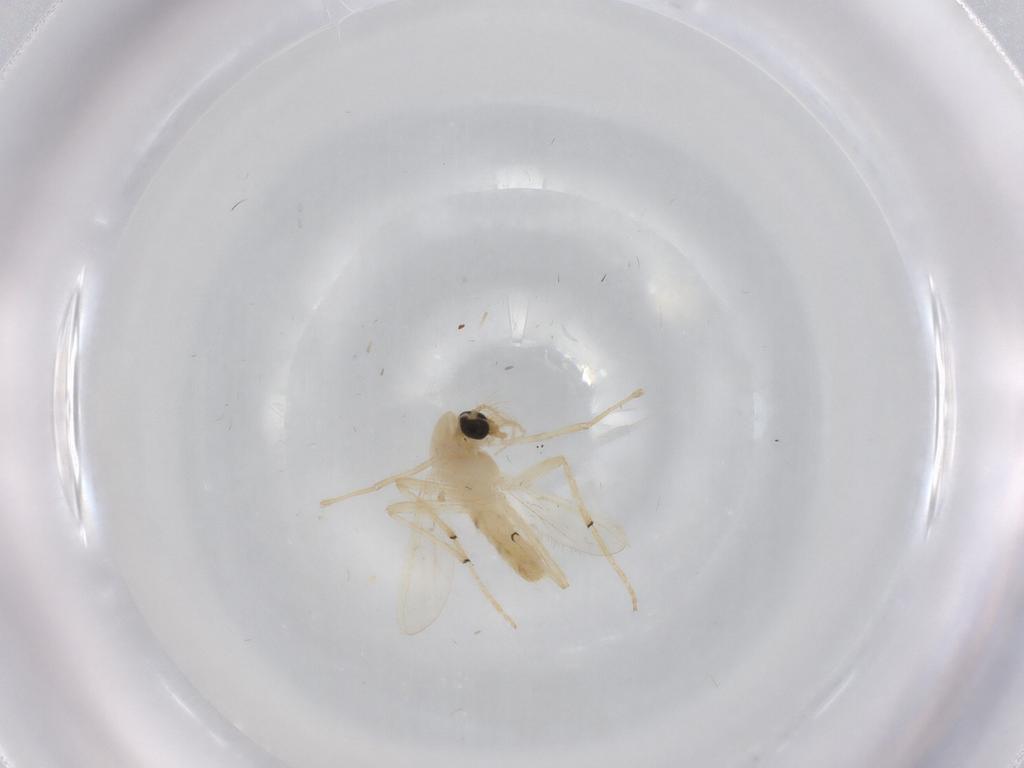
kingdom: Animalia
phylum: Arthropoda
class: Insecta
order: Diptera
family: Chironomidae
